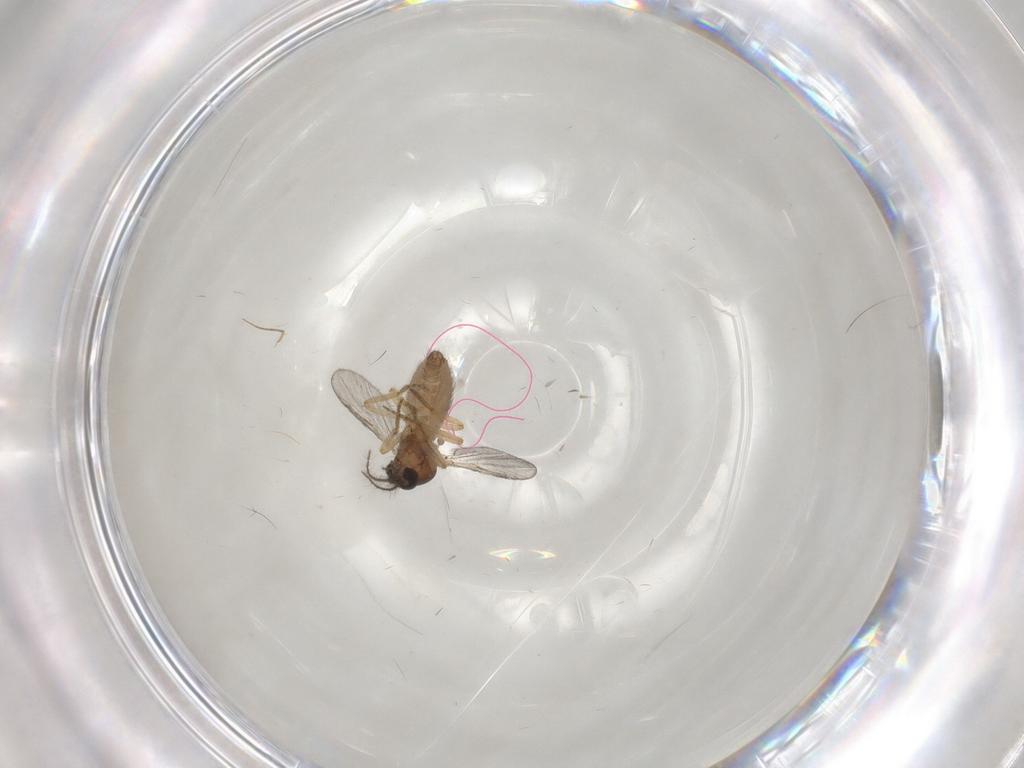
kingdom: Animalia
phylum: Arthropoda
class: Insecta
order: Diptera
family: Ceratopogonidae
